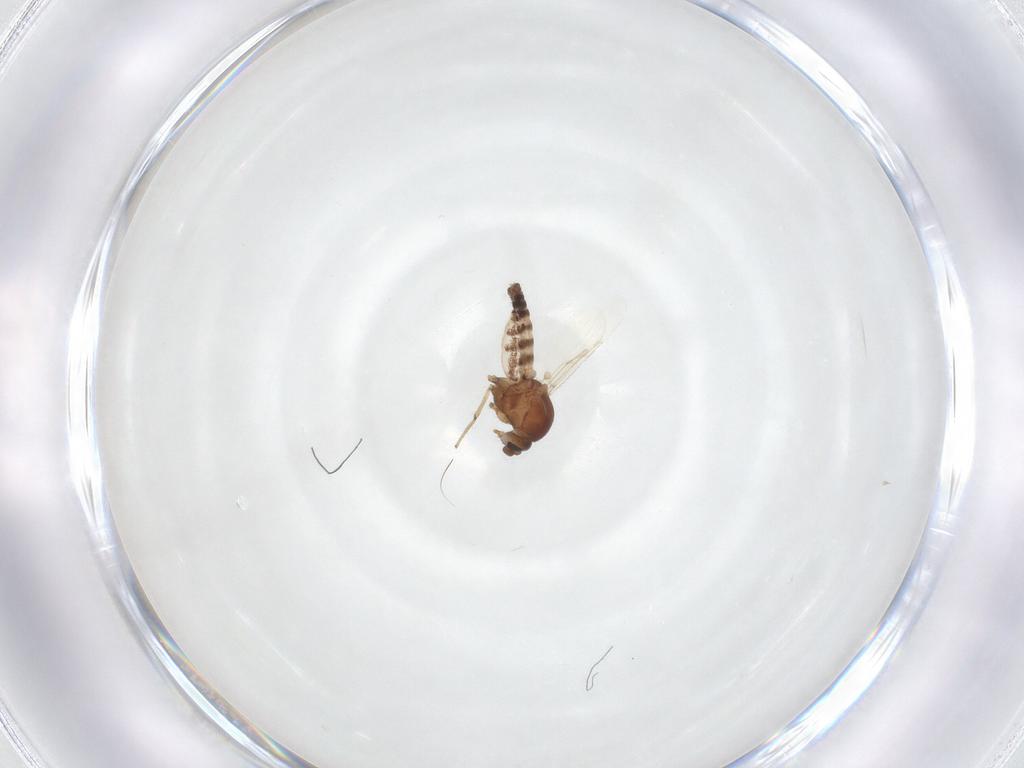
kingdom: Animalia
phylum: Arthropoda
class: Insecta
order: Diptera
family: Ceratopogonidae
